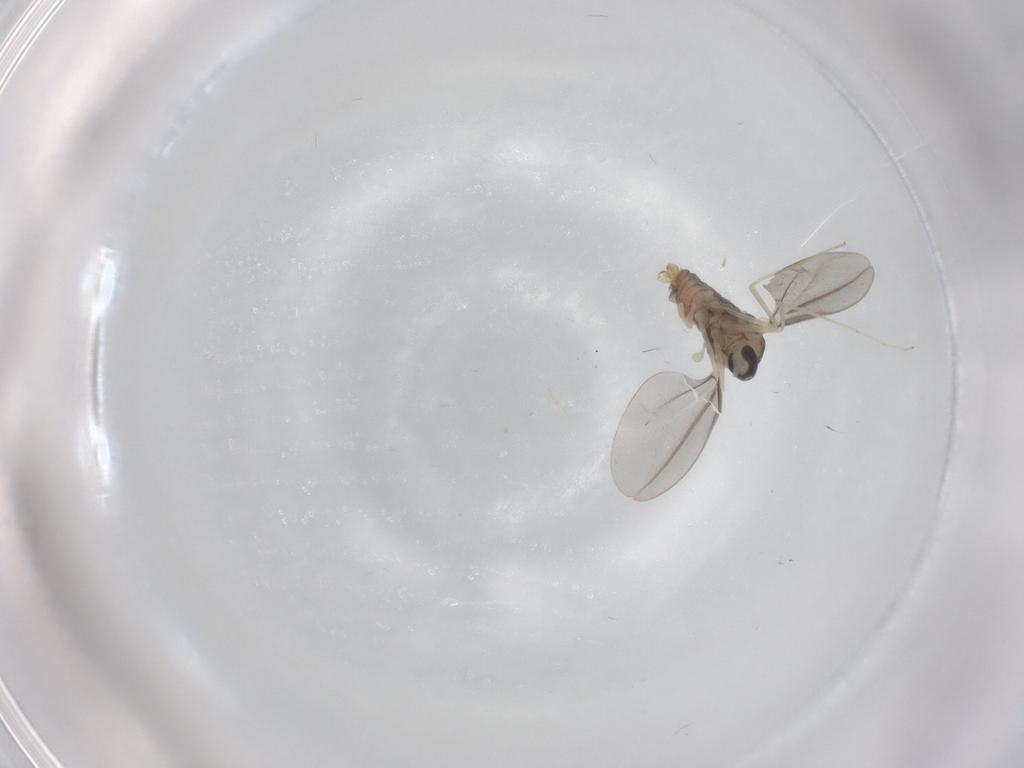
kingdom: Animalia
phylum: Arthropoda
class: Insecta
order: Diptera
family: Cecidomyiidae
